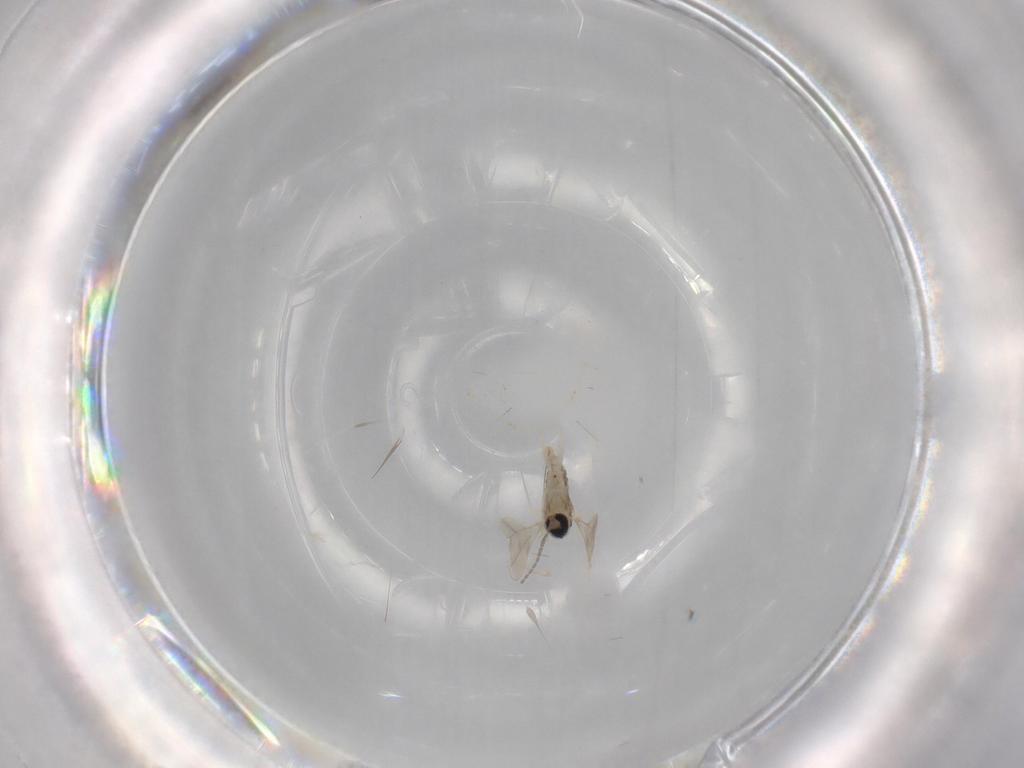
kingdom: Animalia
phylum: Arthropoda
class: Insecta
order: Diptera
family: Cecidomyiidae
